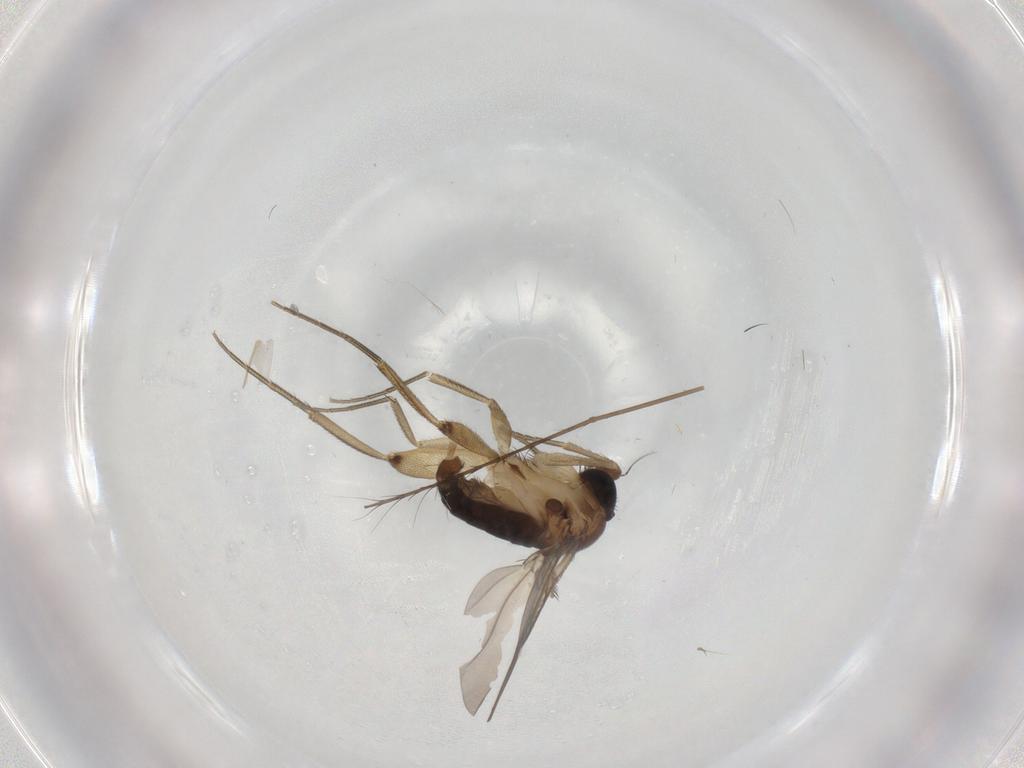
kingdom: Animalia
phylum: Arthropoda
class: Insecta
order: Diptera
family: Phoridae
